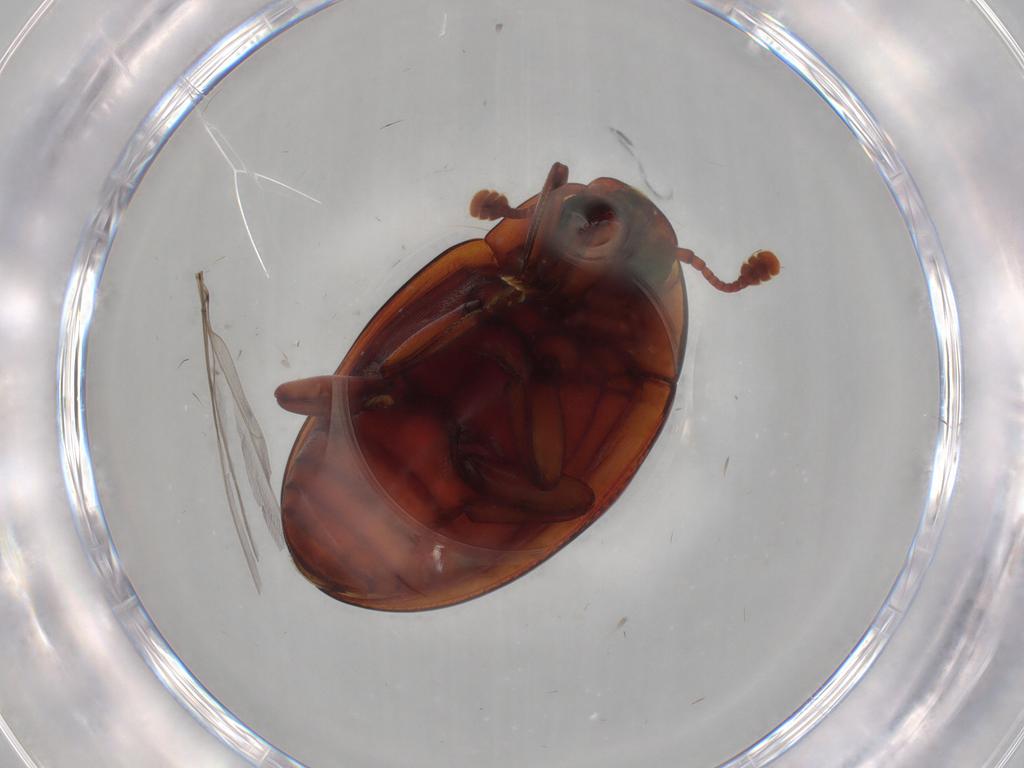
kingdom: Animalia
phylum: Arthropoda
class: Insecta
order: Coleoptera
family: Zopheridae
